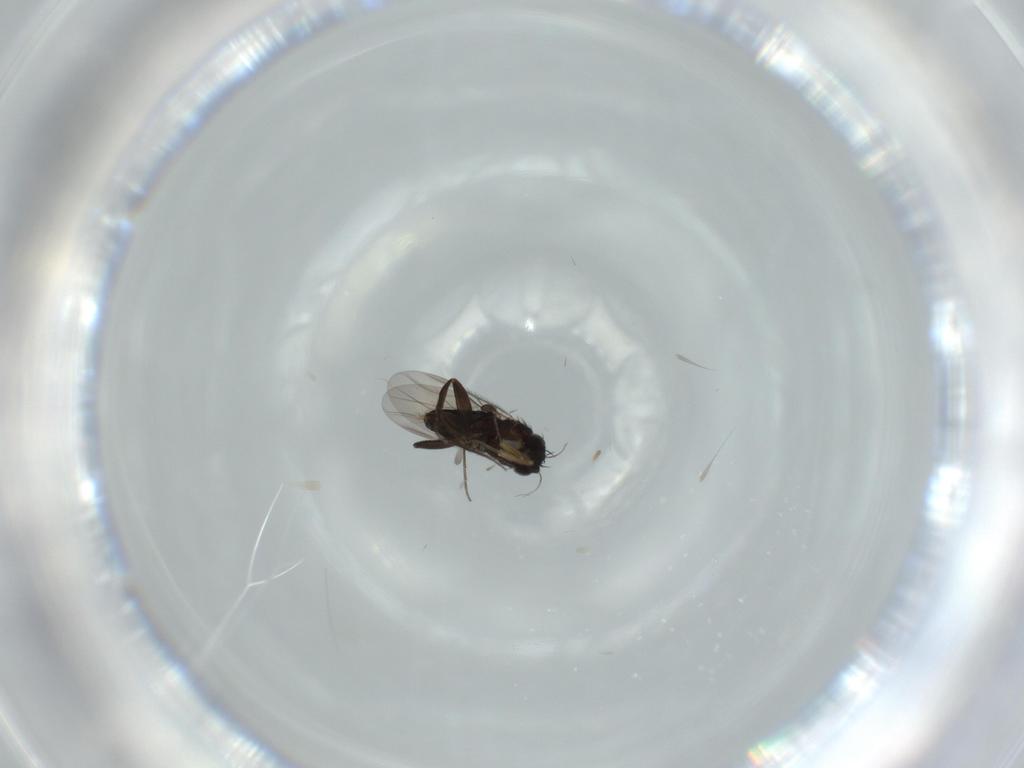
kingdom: Animalia
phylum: Arthropoda
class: Insecta
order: Diptera
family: Phoridae
